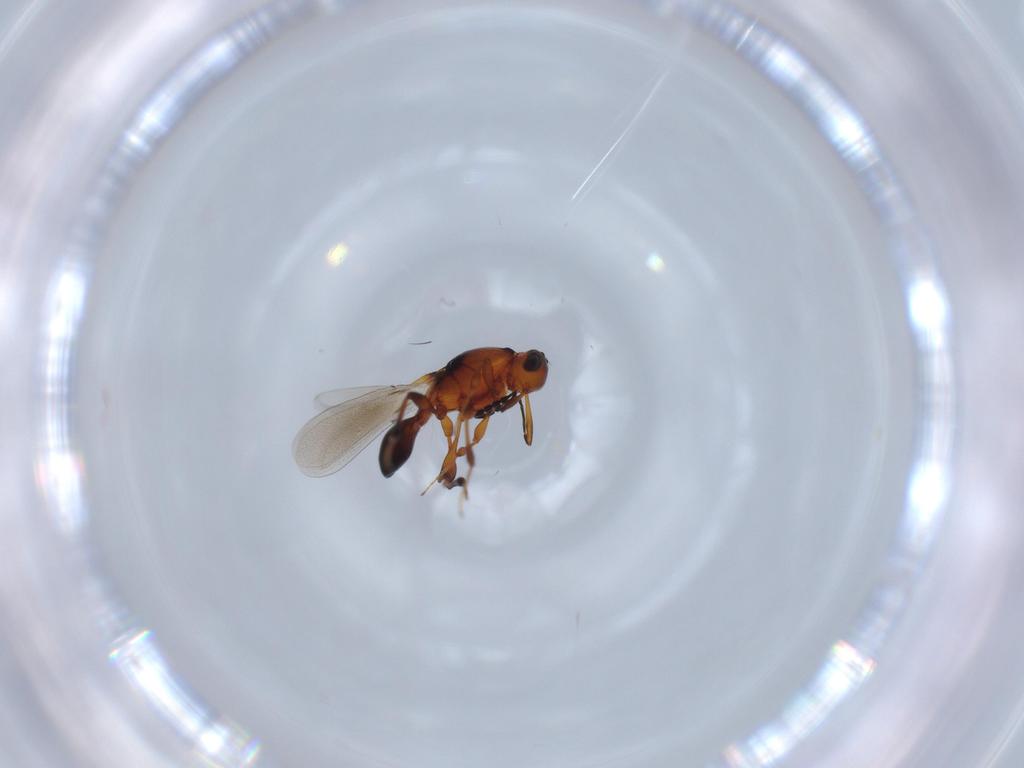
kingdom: Animalia
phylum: Arthropoda
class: Insecta
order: Hymenoptera
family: Platygastridae
